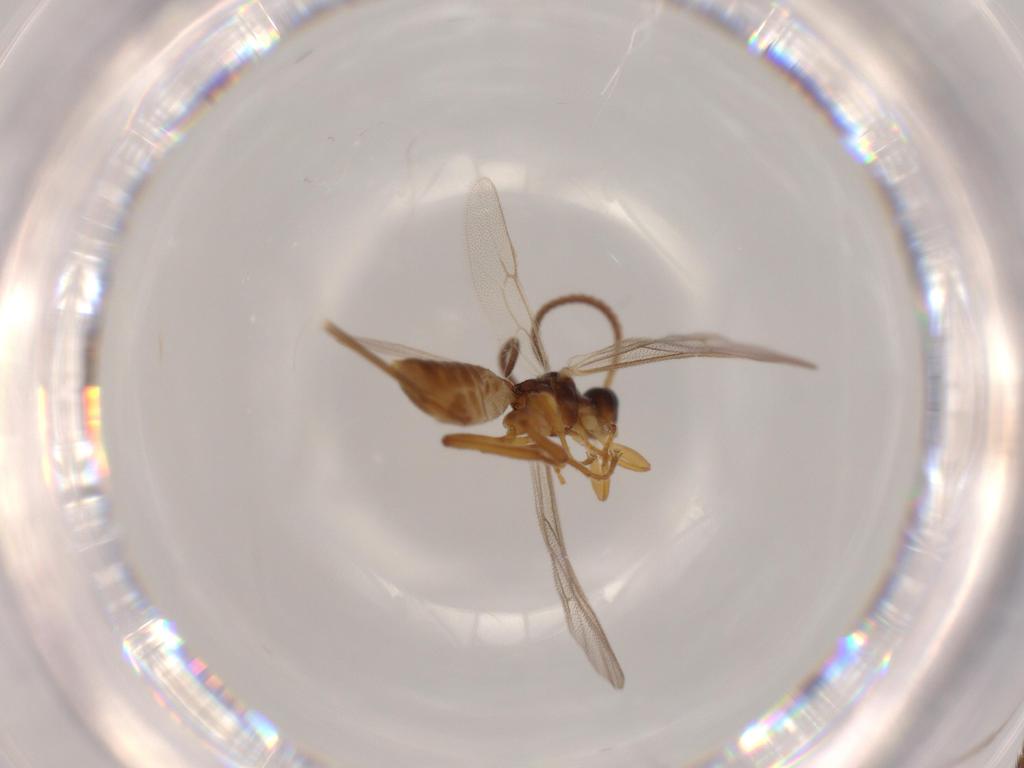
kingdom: Animalia
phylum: Arthropoda
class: Insecta
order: Hymenoptera
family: Ichneumonidae
